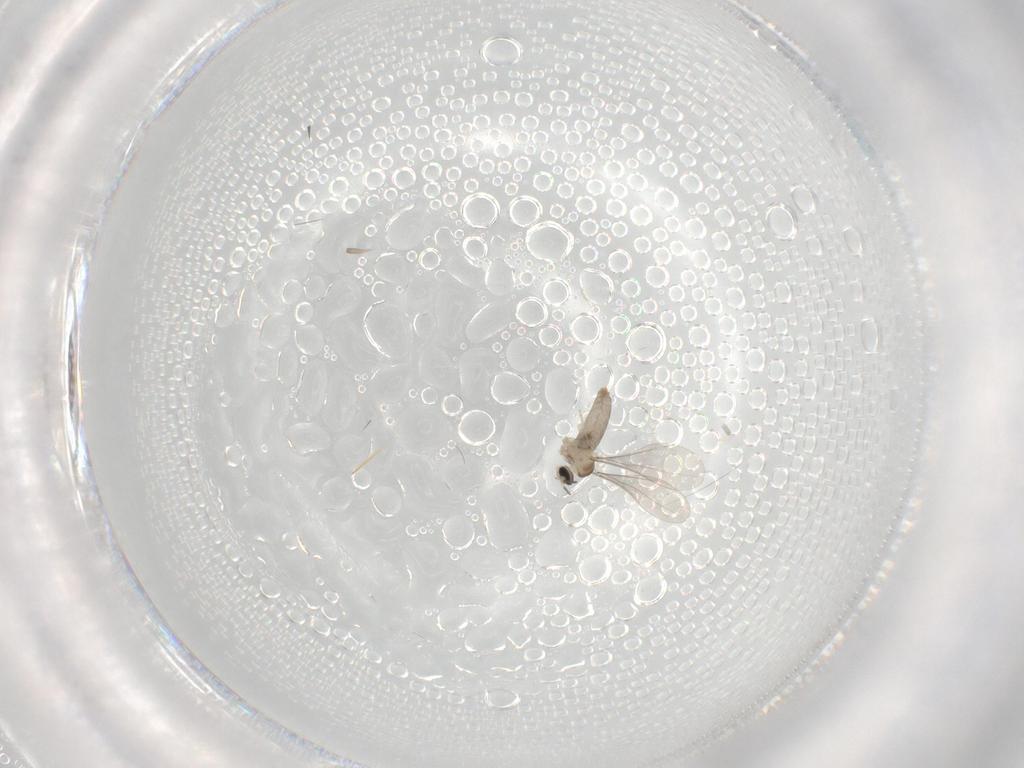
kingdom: Animalia
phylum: Arthropoda
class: Insecta
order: Diptera
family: Cecidomyiidae
